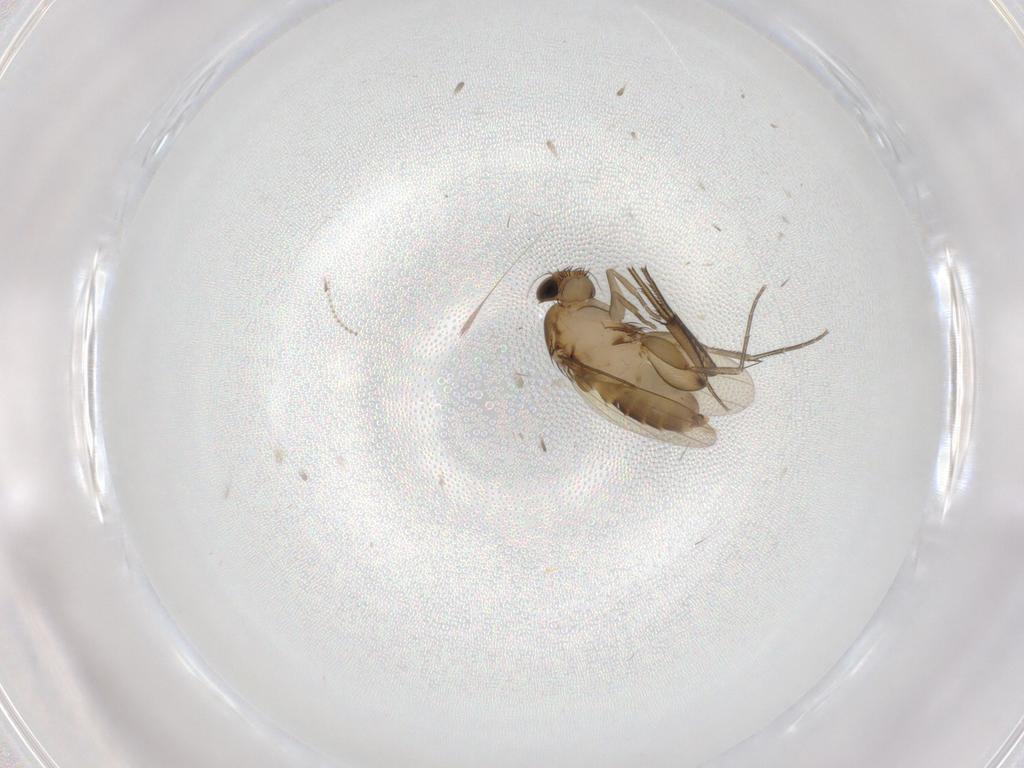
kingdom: Animalia
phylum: Arthropoda
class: Insecta
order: Diptera
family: Phoridae
